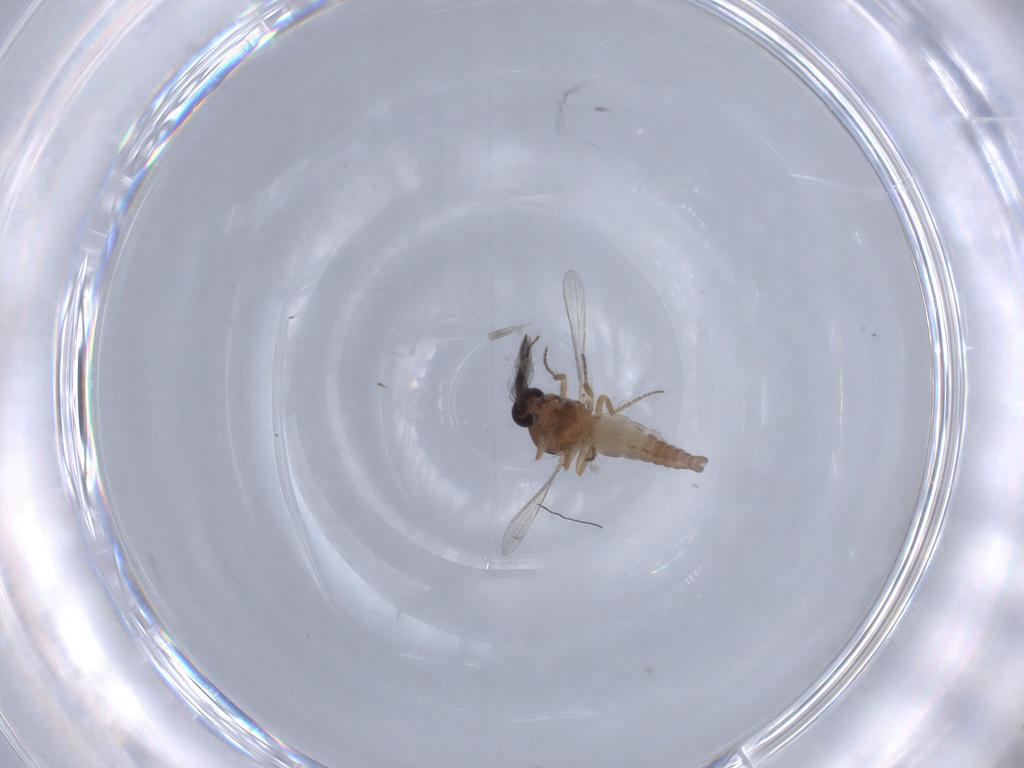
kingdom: Animalia
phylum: Arthropoda
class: Insecta
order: Diptera
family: Ceratopogonidae
